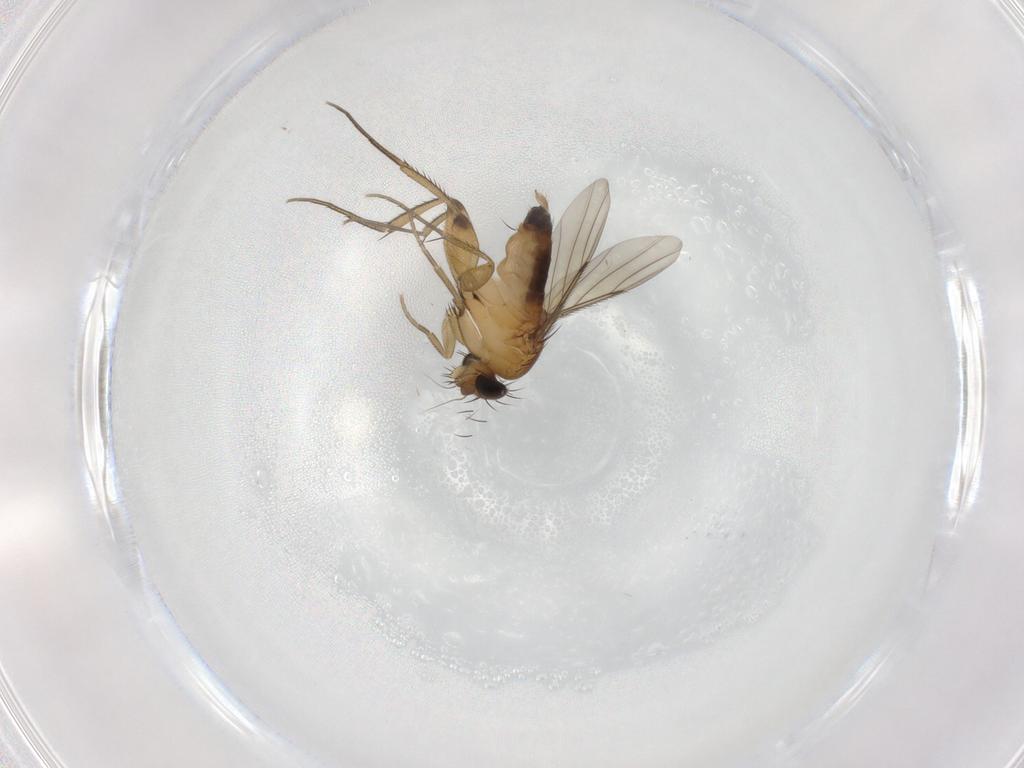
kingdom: Animalia
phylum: Arthropoda
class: Insecta
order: Diptera
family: Phoridae
